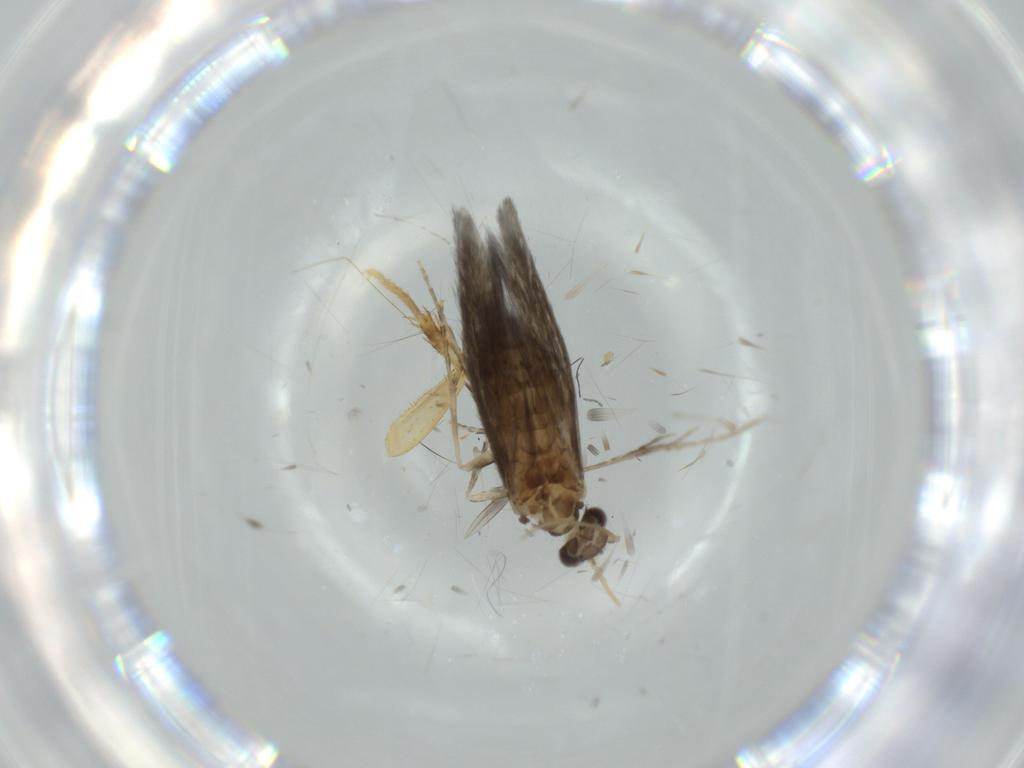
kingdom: Animalia
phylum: Arthropoda
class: Insecta
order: Trichoptera
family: Hydroptilidae
